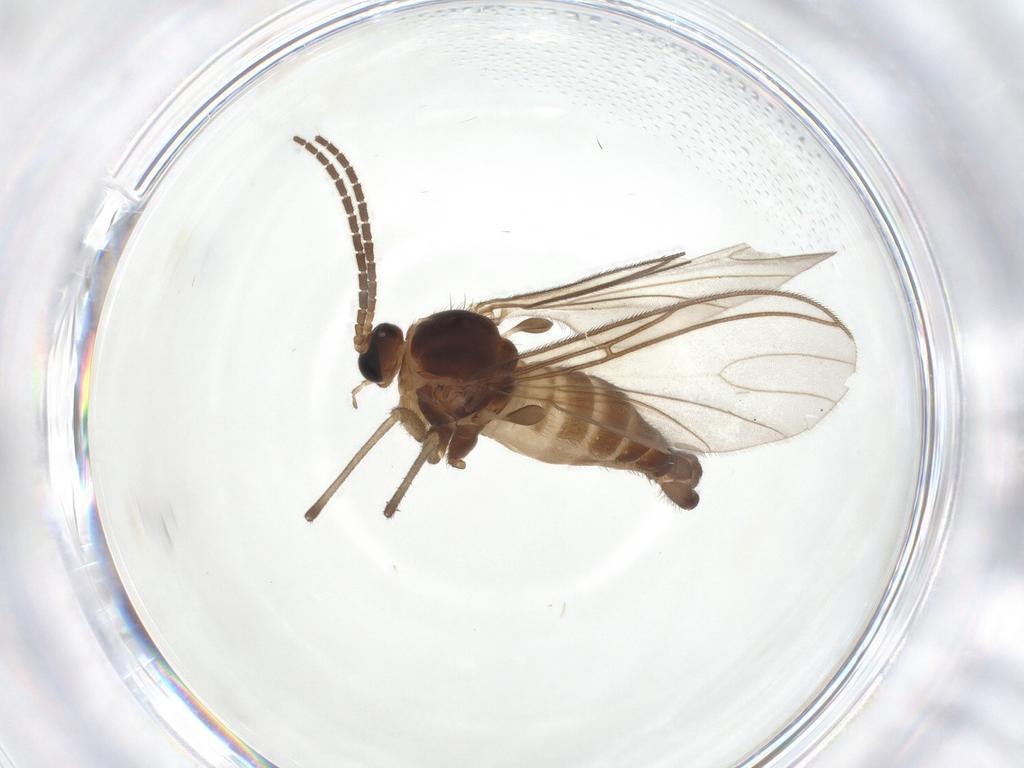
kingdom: Animalia
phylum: Arthropoda
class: Insecta
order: Diptera
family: Sciaridae
